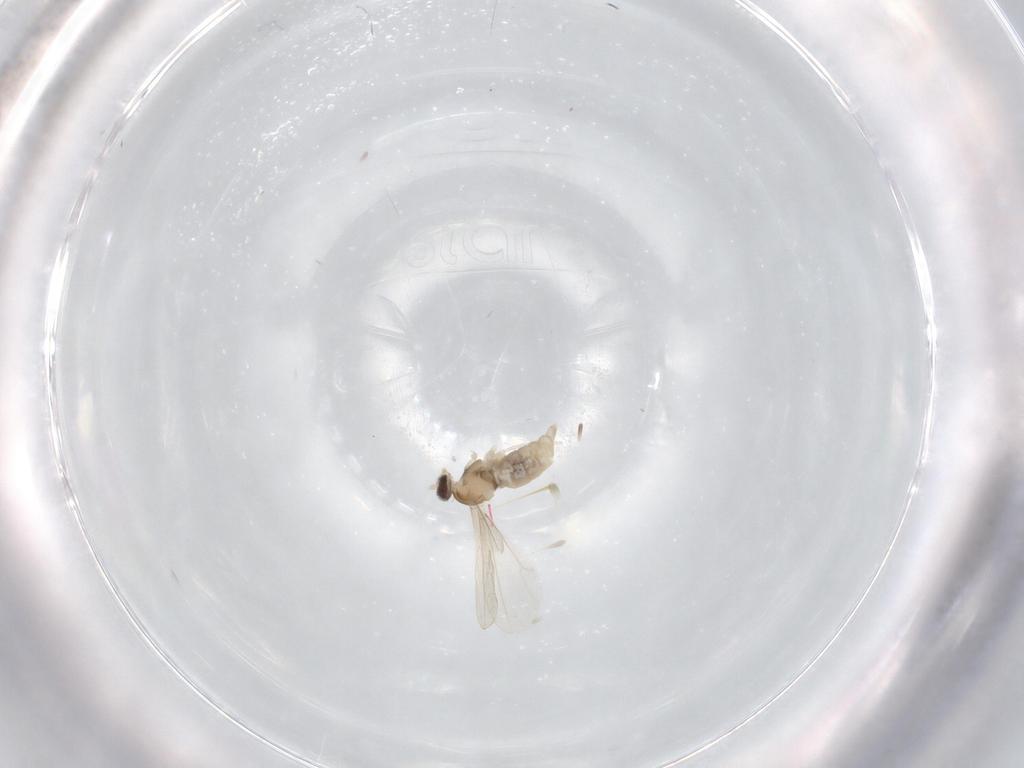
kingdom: Animalia
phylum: Arthropoda
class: Insecta
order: Diptera
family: Cecidomyiidae
